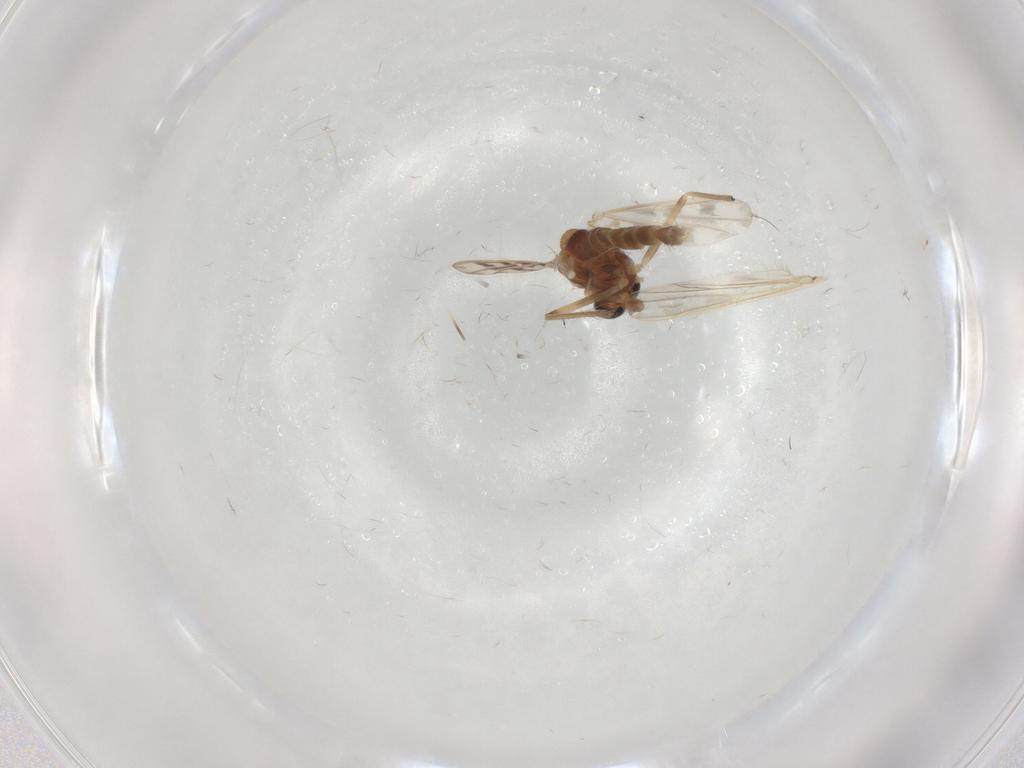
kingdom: Animalia
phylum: Arthropoda
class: Insecta
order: Diptera
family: Chironomidae
